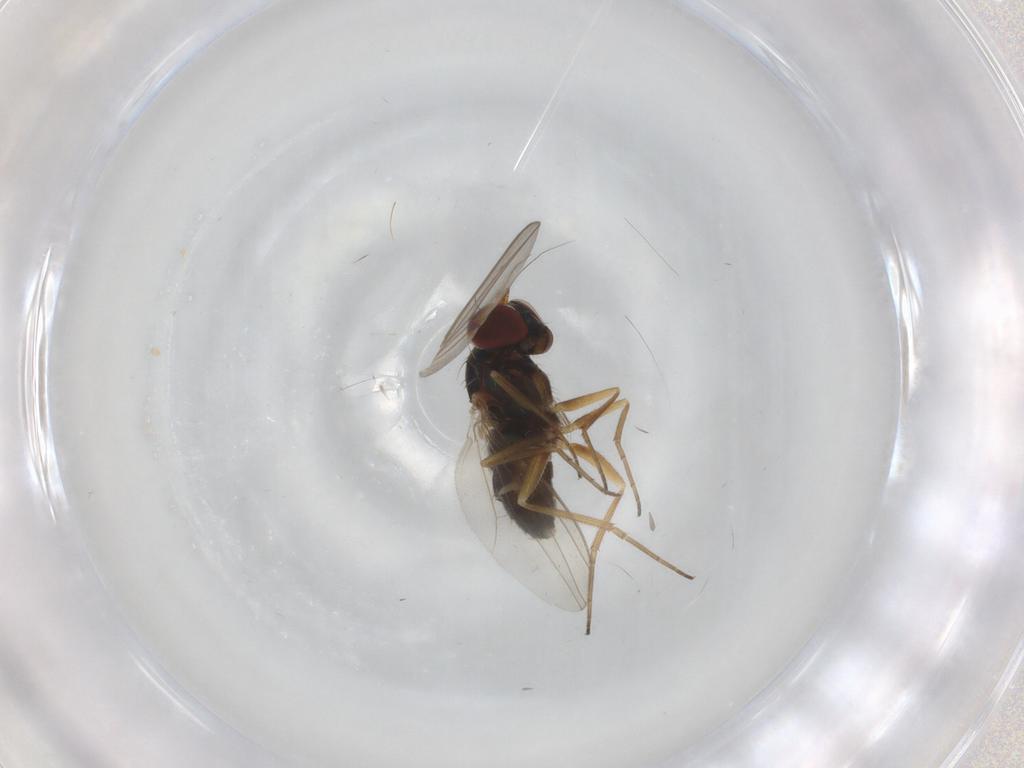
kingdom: Animalia
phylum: Arthropoda
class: Insecta
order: Diptera
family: Dolichopodidae
